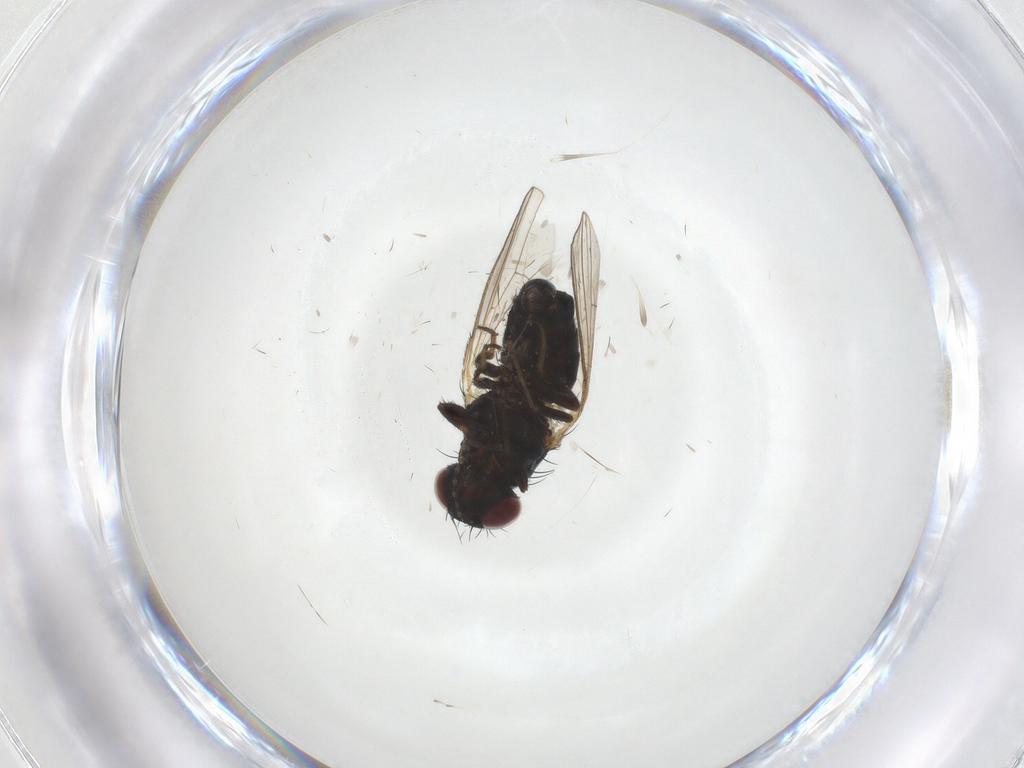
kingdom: Animalia
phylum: Arthropoda
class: Insecta
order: Diptera
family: Carnidae
